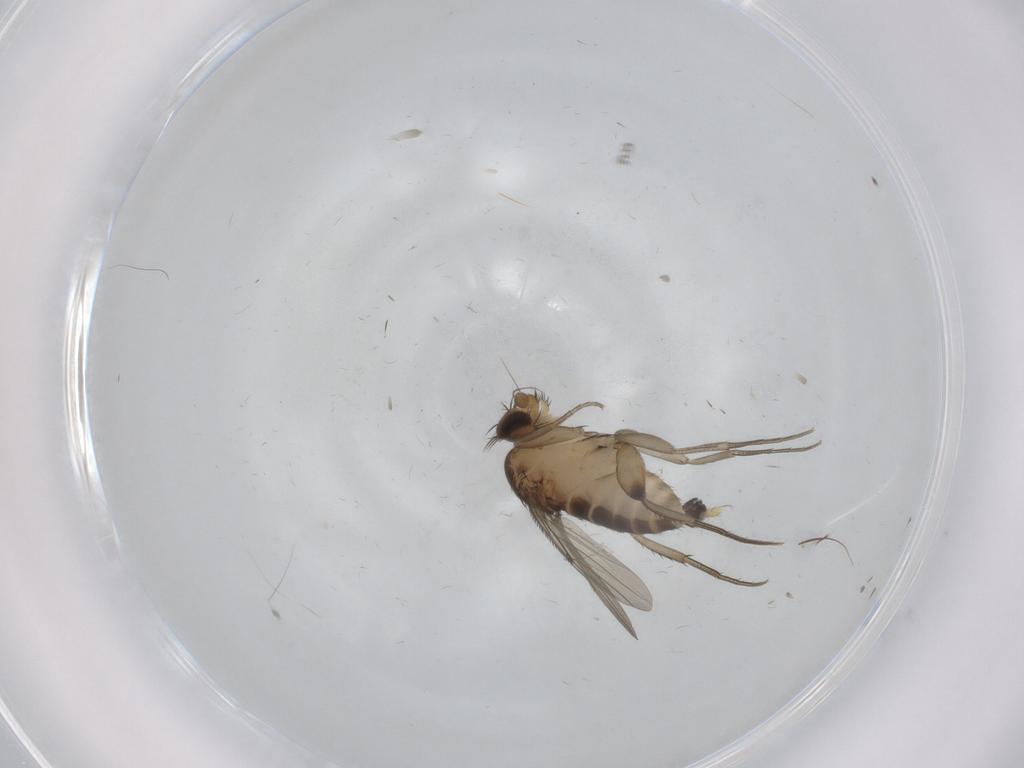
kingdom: Animalia
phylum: Arthropoda
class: Insecta
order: Diptera
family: Phoridae
